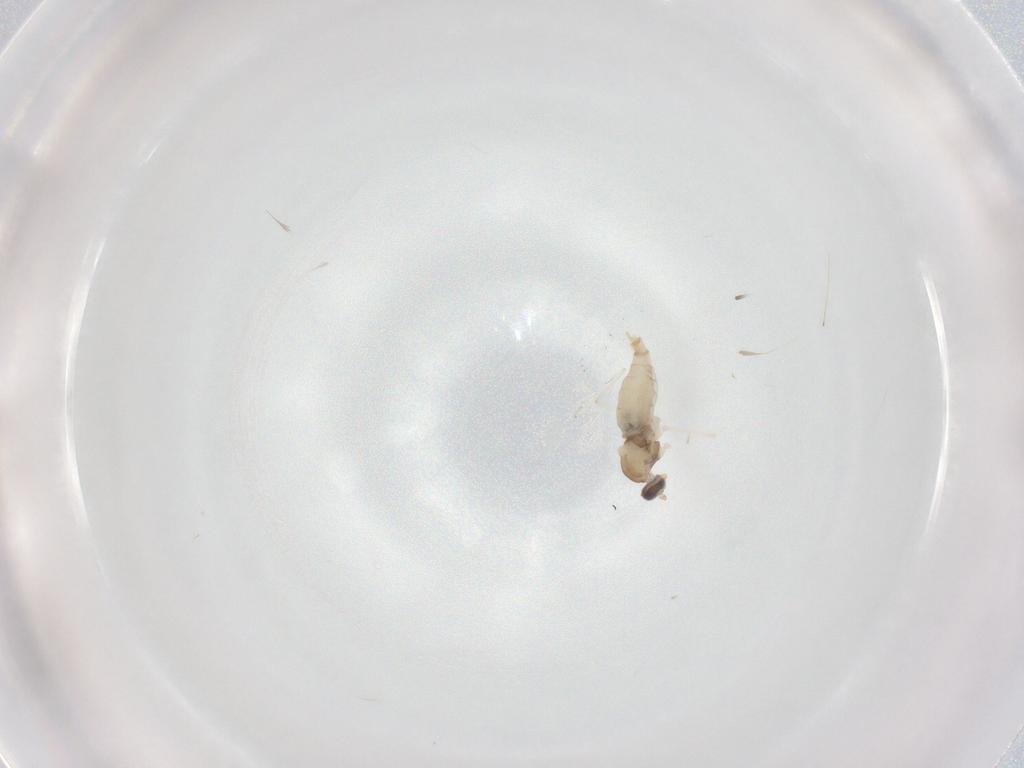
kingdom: Animalia
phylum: Arthropoda
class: Insecta
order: Diptera
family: Cecidomyiidae
